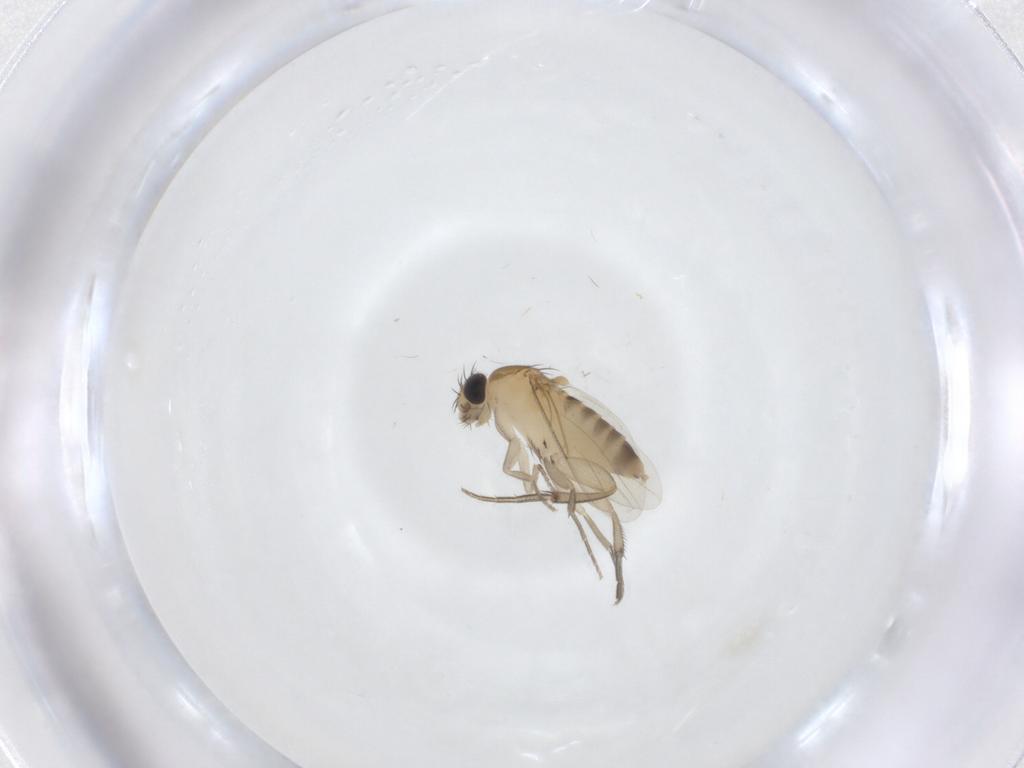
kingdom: Animalia
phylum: Arthropoda
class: Insecta
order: Diptera
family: Phoridae
